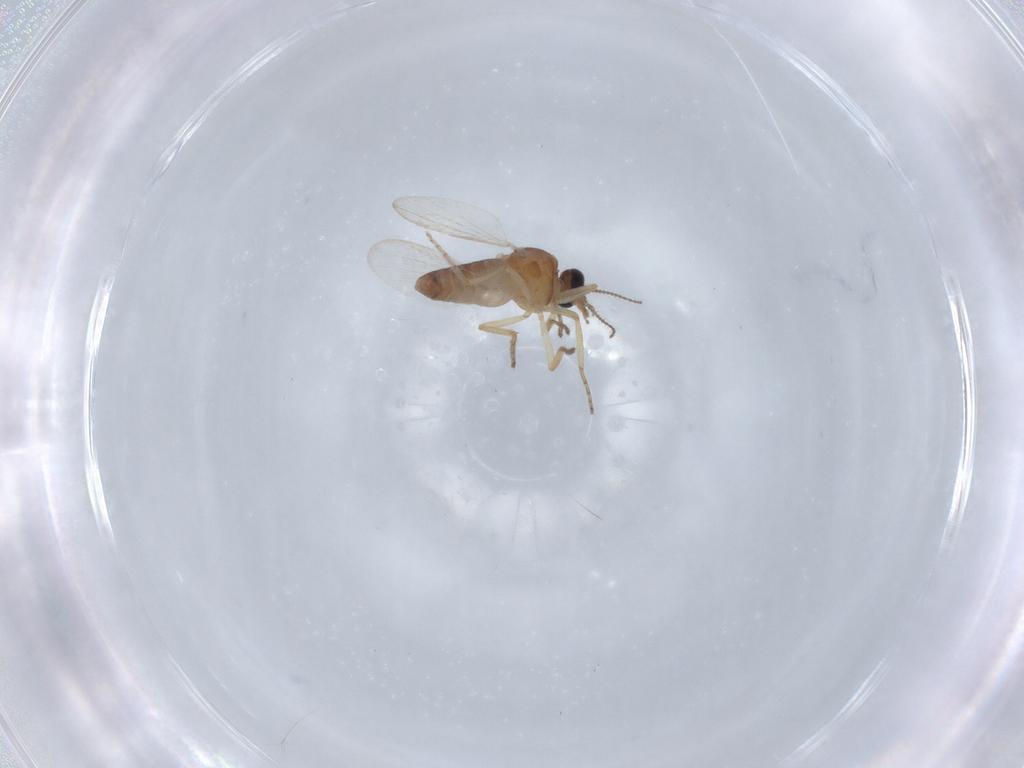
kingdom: Animalia
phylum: Arthropoda
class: Insecta
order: Diptera
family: Ceratopogonidae
